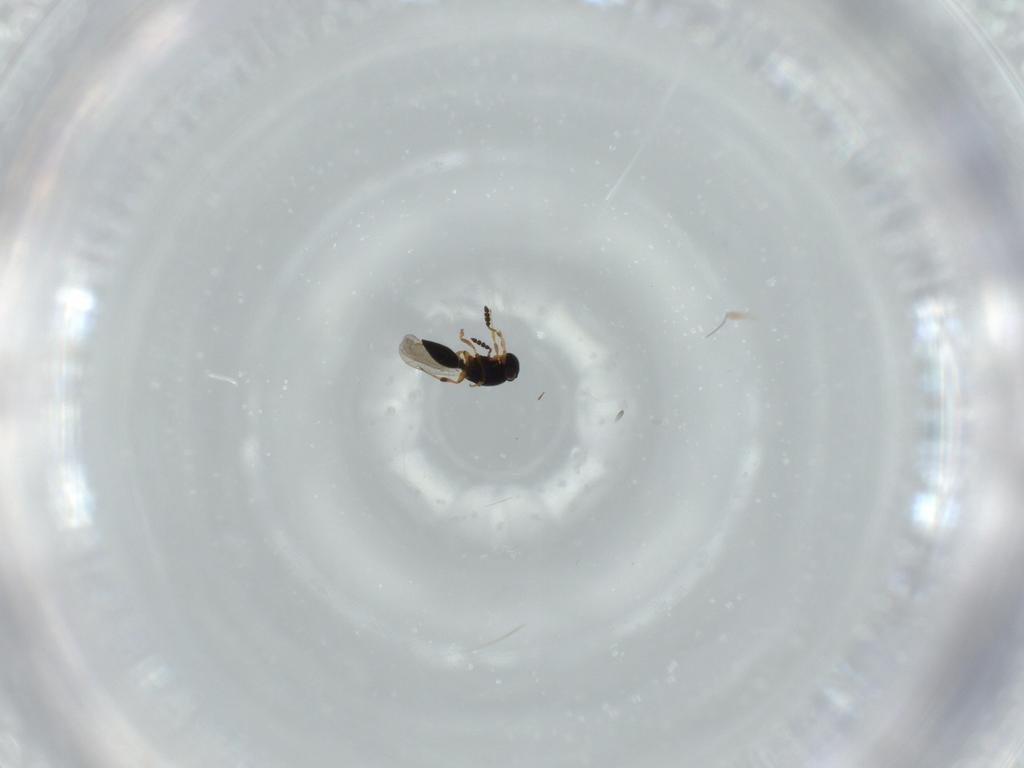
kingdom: Animalia
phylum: Arthropoda
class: Insecta
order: Hymenoptera
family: Platygastridae
